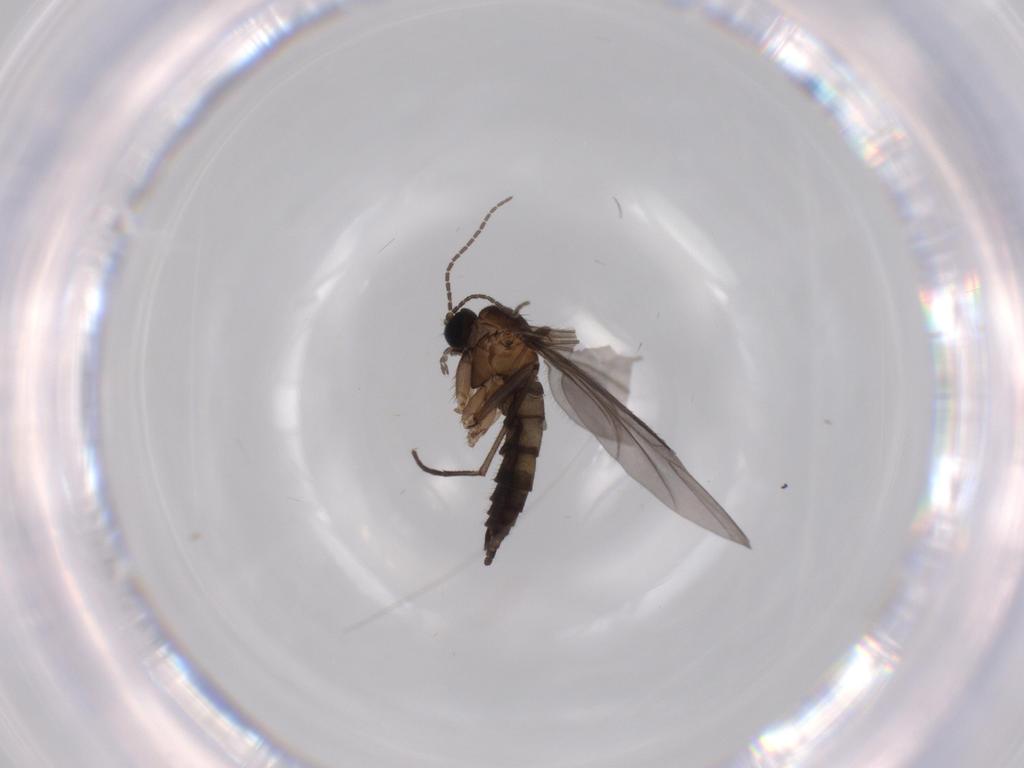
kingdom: Animalia
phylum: Arthropoda
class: Insecta
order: Diptera
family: Sciaridae
